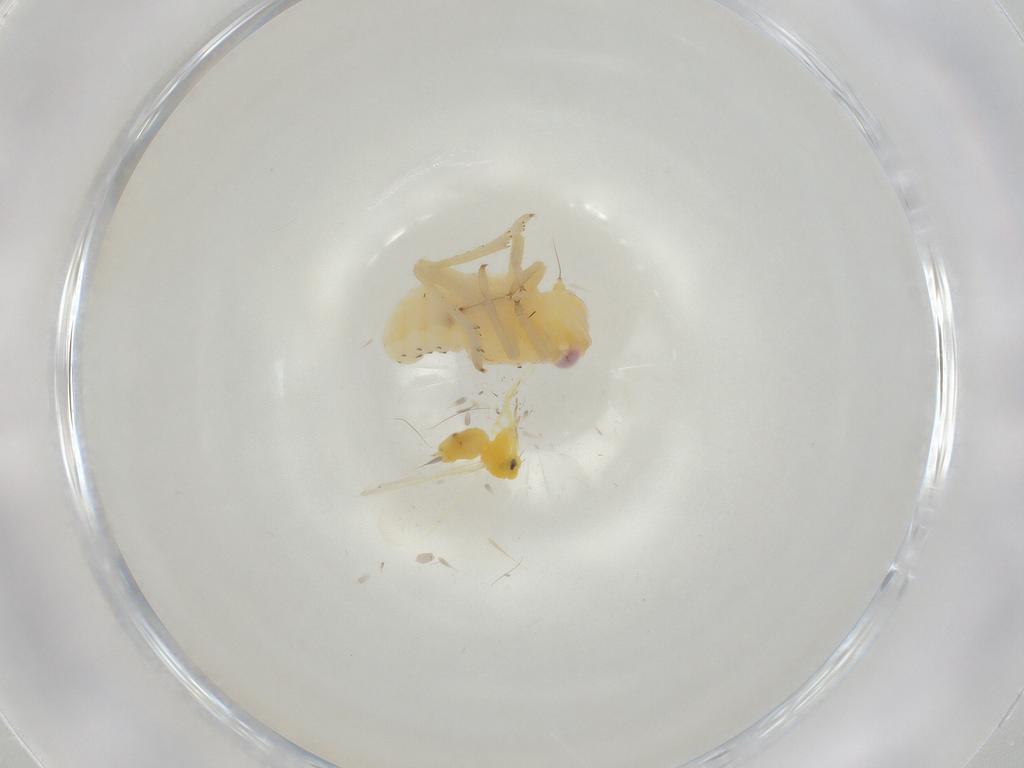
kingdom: Animalia
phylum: Arthropoda
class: Insecta
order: Hemiptera
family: Tropiduchidae
